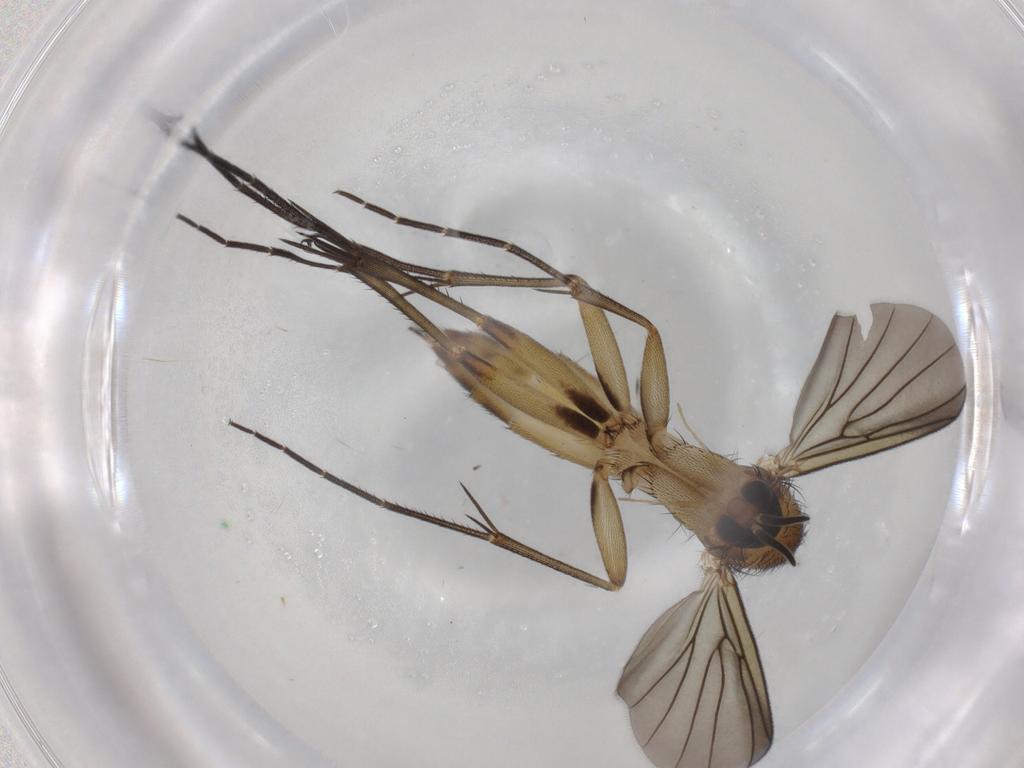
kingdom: Animalia
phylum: Arthropoda
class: Insecta
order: Diptera
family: Mycetophilidae
